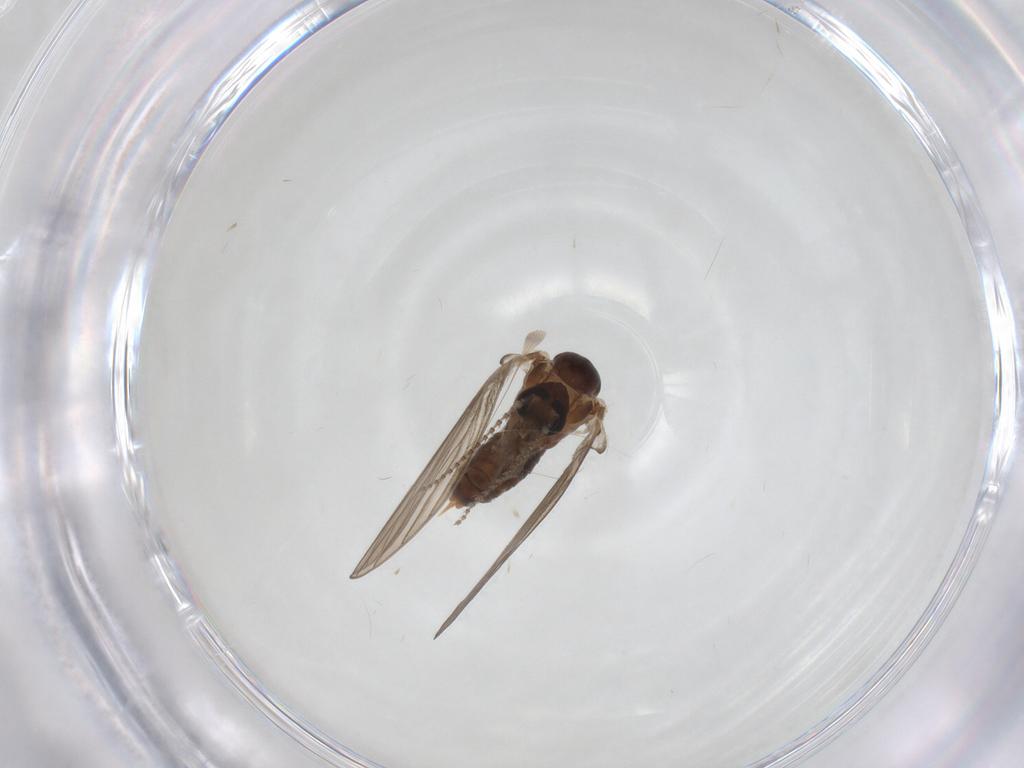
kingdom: Animalia
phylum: Arthropoda
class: Insecta
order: Diptera
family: Psychodidae
